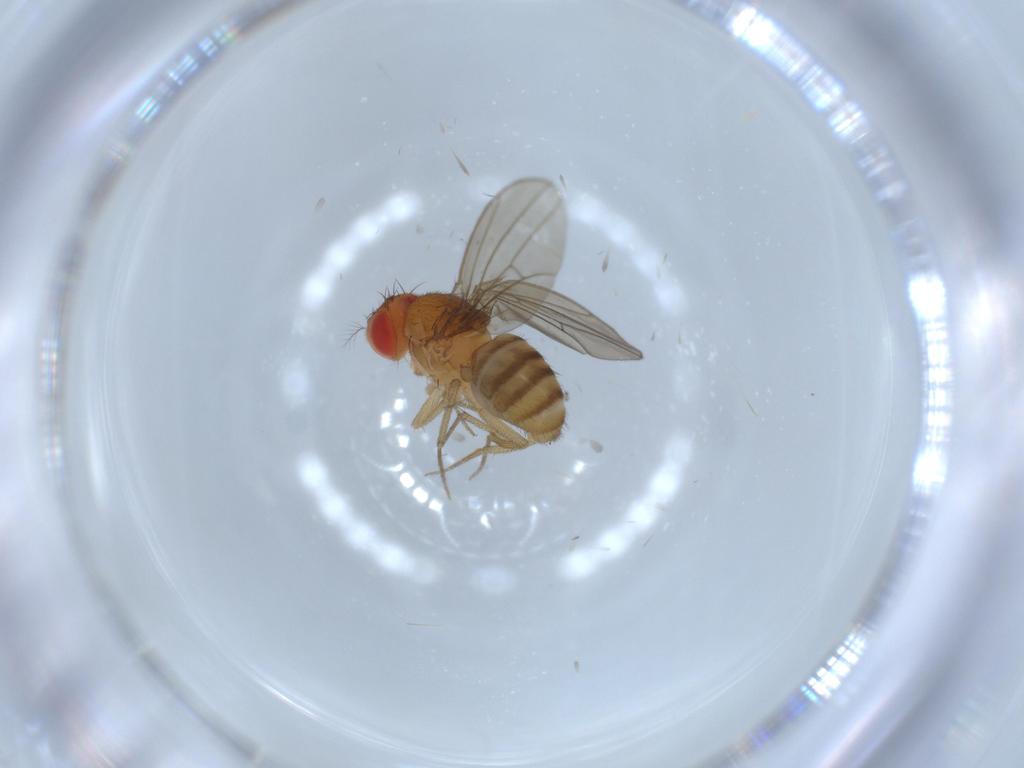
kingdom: Animalia
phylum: Arthropoda
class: Insecta
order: Diptera
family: Drosophilidae
